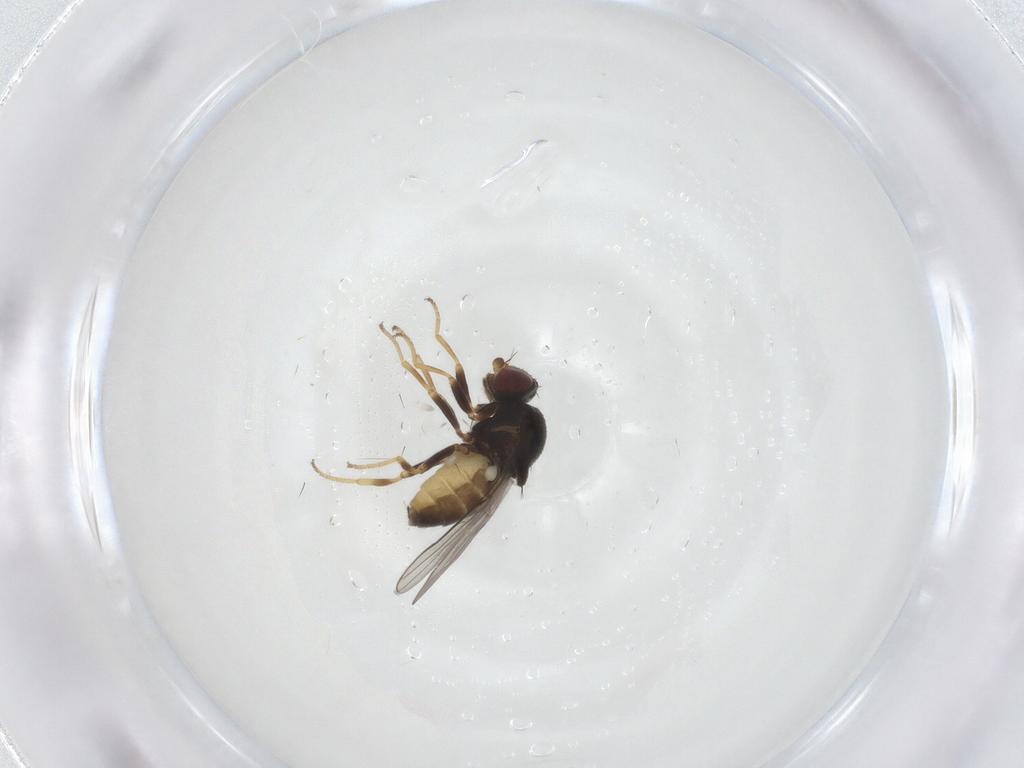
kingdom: Animalia
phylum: Arthropoda
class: Insecta
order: Diptera
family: Chloropidae
